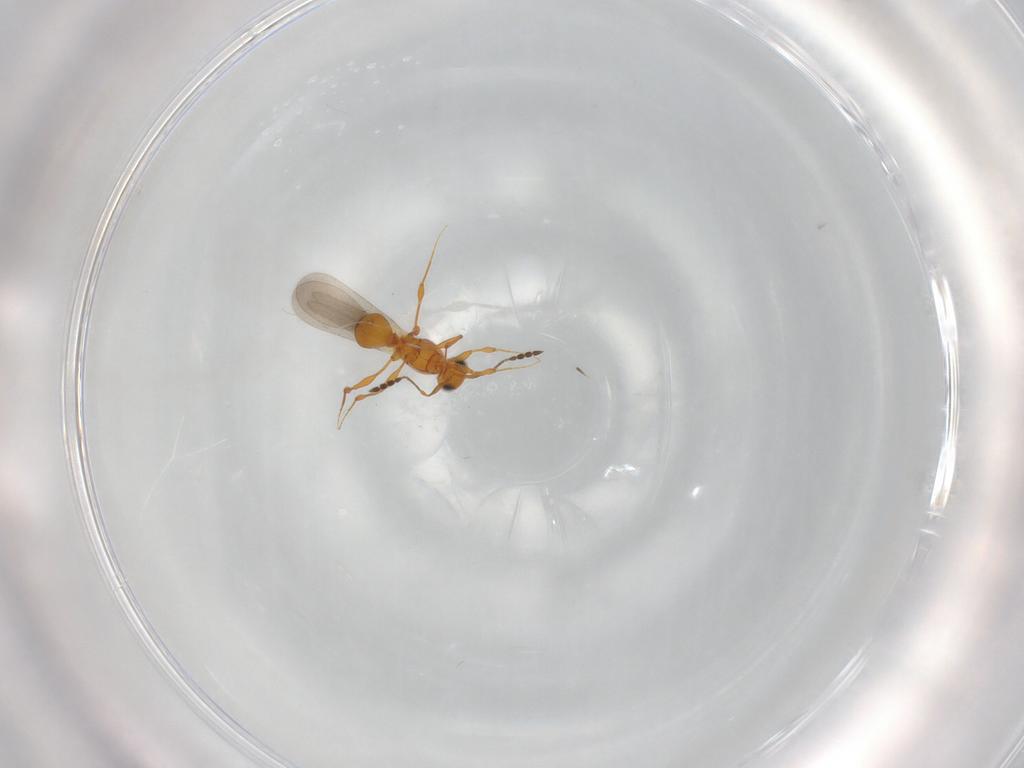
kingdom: Animalia
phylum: Arthropoda
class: Insecta
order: Hymenoptera
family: Platygastridae
